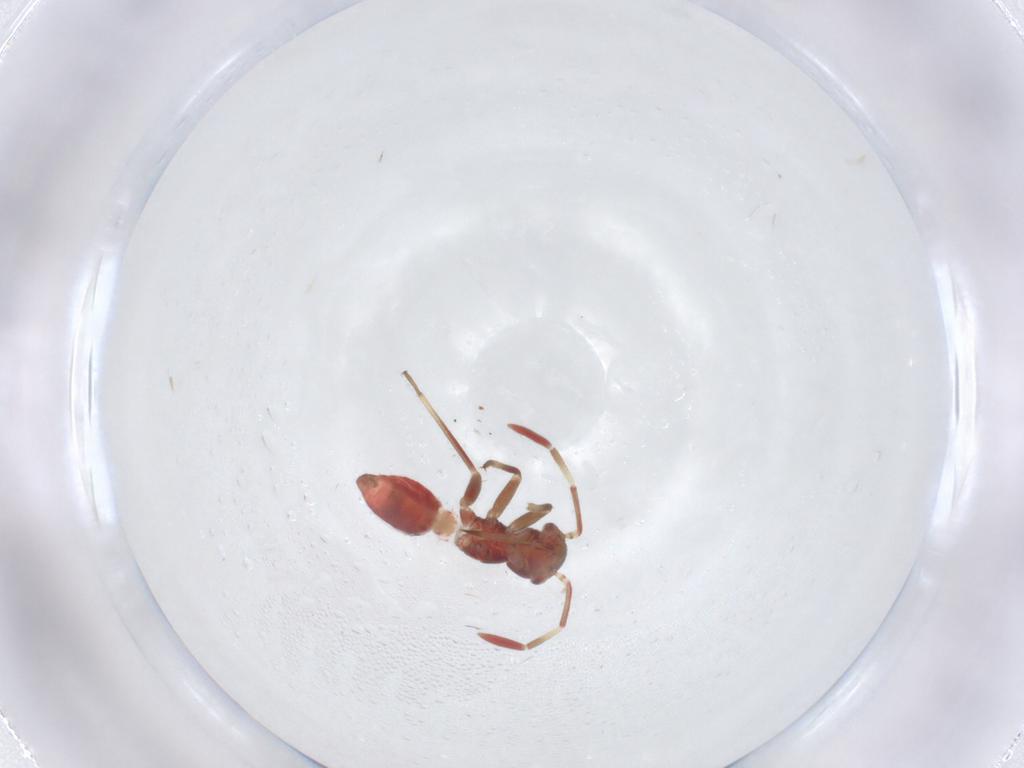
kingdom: Animalia
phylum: Arthropoda
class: Insecta
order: Hemiptera
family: Miridae
